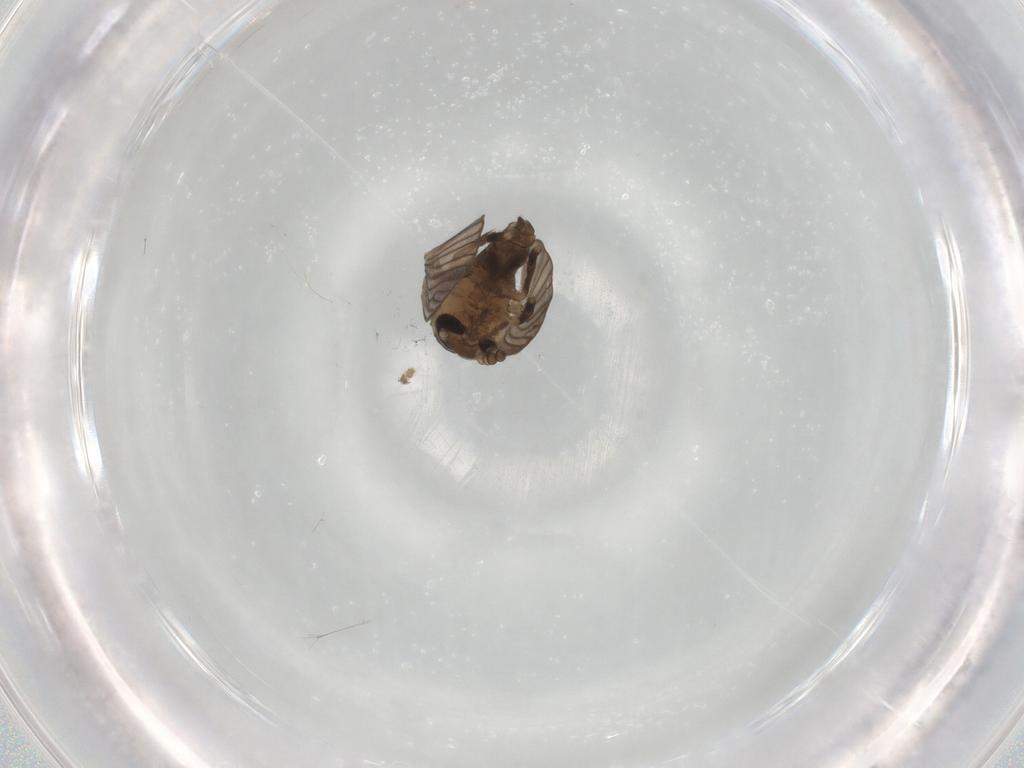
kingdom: Animalia
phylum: Arthropoda
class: Insecta
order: Diptera
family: Psychodidae
